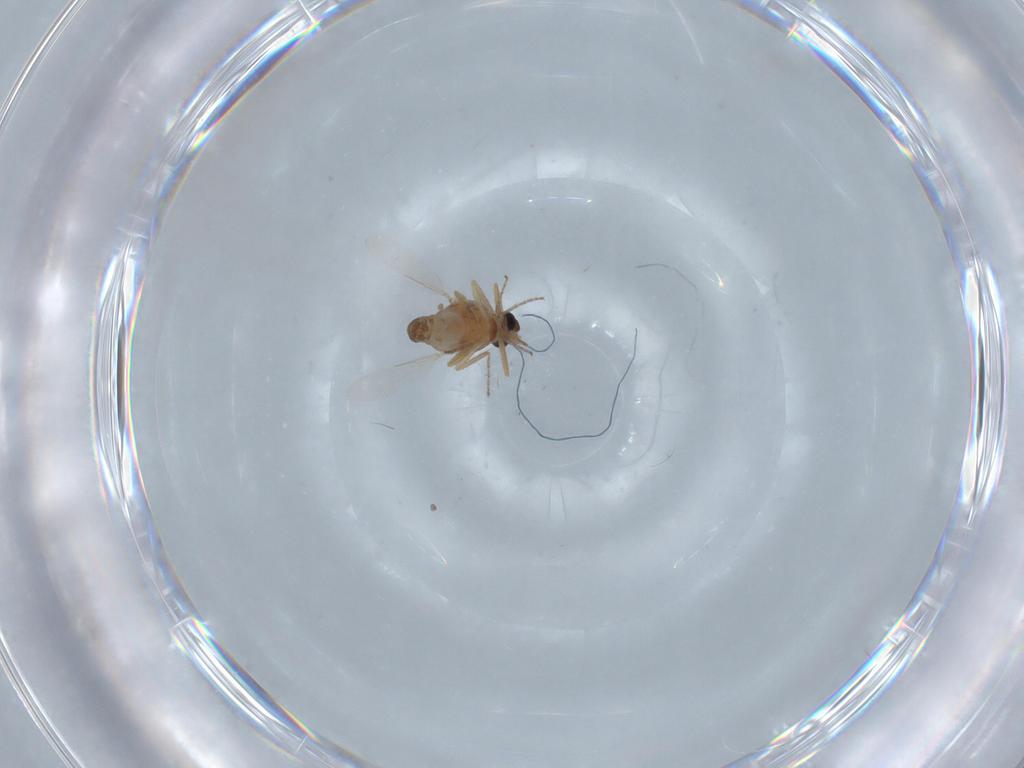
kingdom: Animalia
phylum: Arthropoda
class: Insecta
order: Diptera
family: Ceratopogonidae
